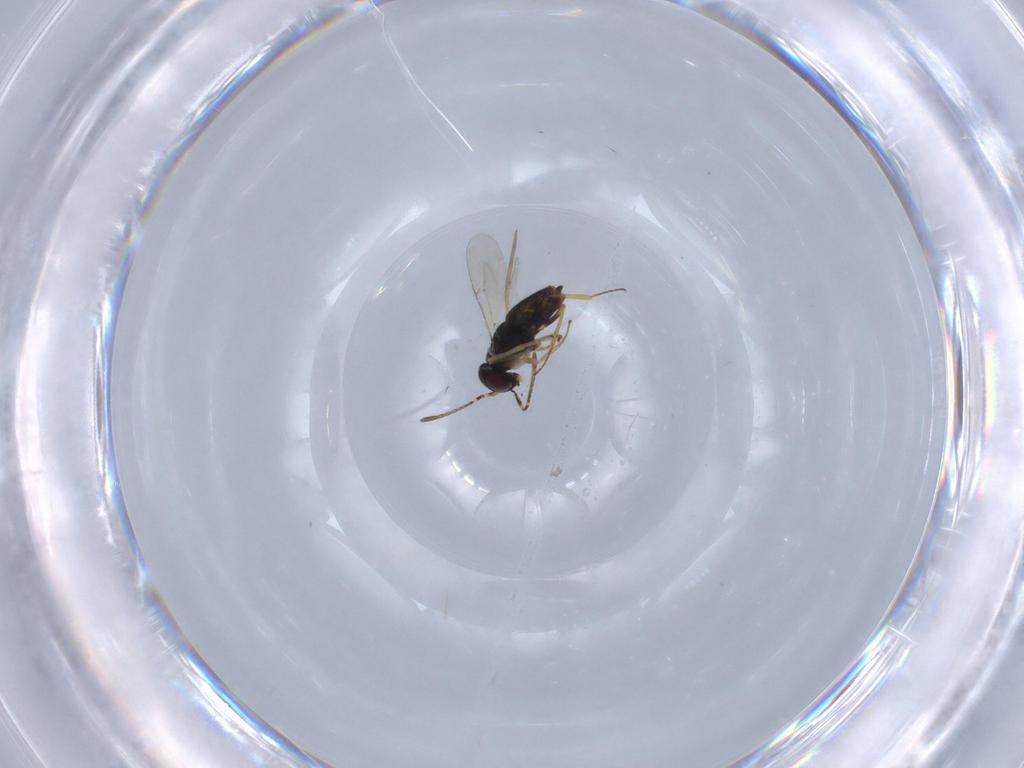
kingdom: Animalia
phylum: Arthropoda
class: Insecta
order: Hymenoptera
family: Encyrtidae
